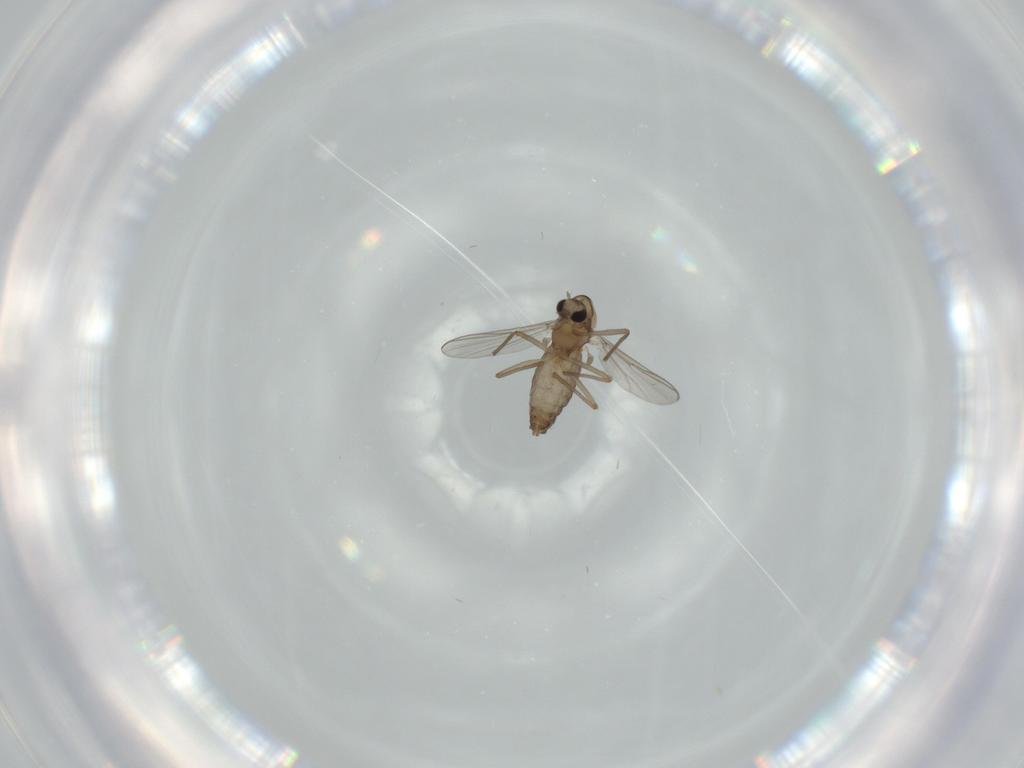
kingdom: Animalia
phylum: Arthropoda
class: Insecta
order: Diptera
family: Chironomidae
